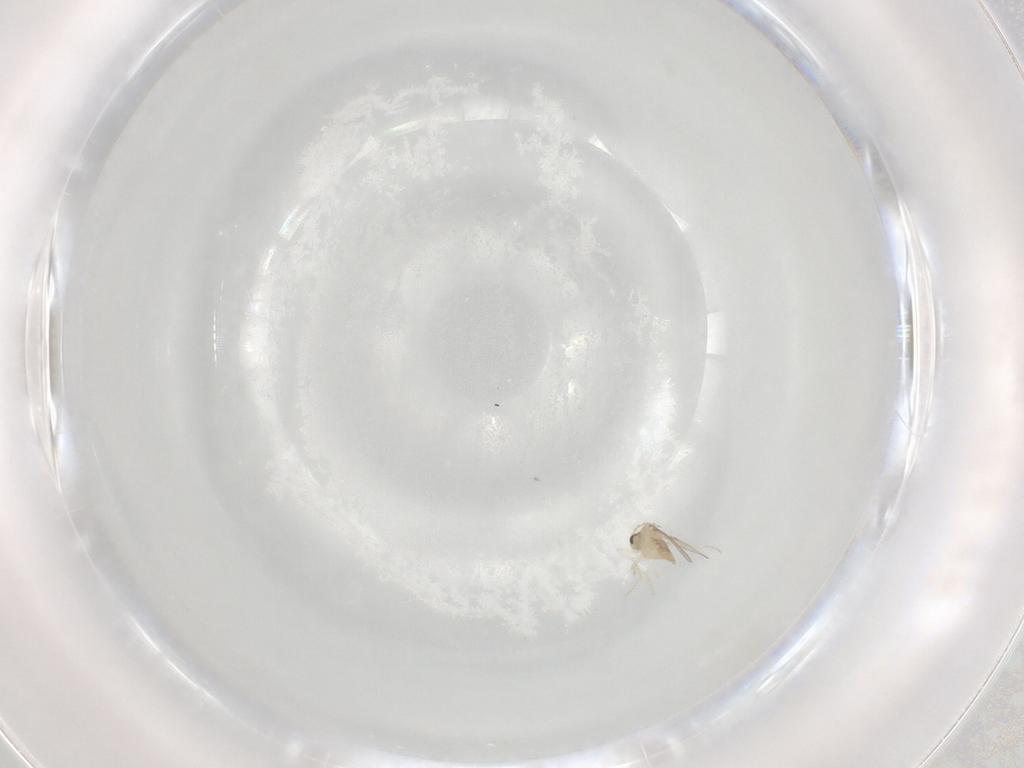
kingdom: Animalia
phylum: Arthropoda
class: Insecta
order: Diptera
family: Cecidomyiidae
